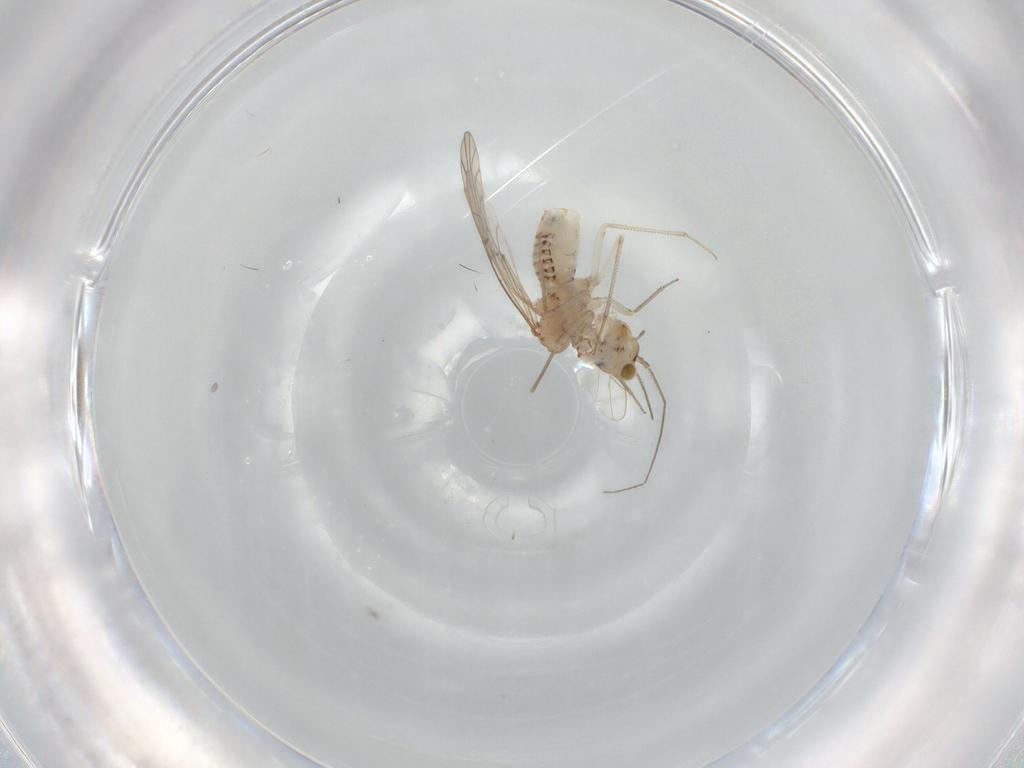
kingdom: Animalia
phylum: Arthropoda
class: Insecta
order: Psocodea
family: Lachesillidae
